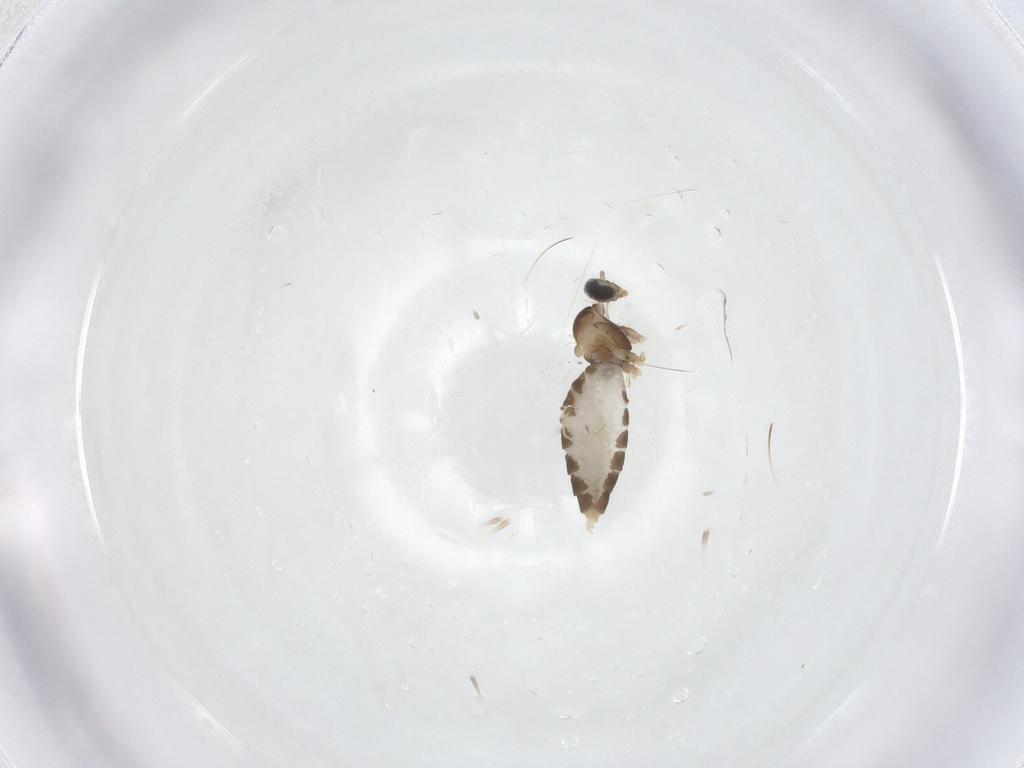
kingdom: Animalia
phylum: Arthropoda
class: Insecta
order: Diptera
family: Cecidomyiidae
